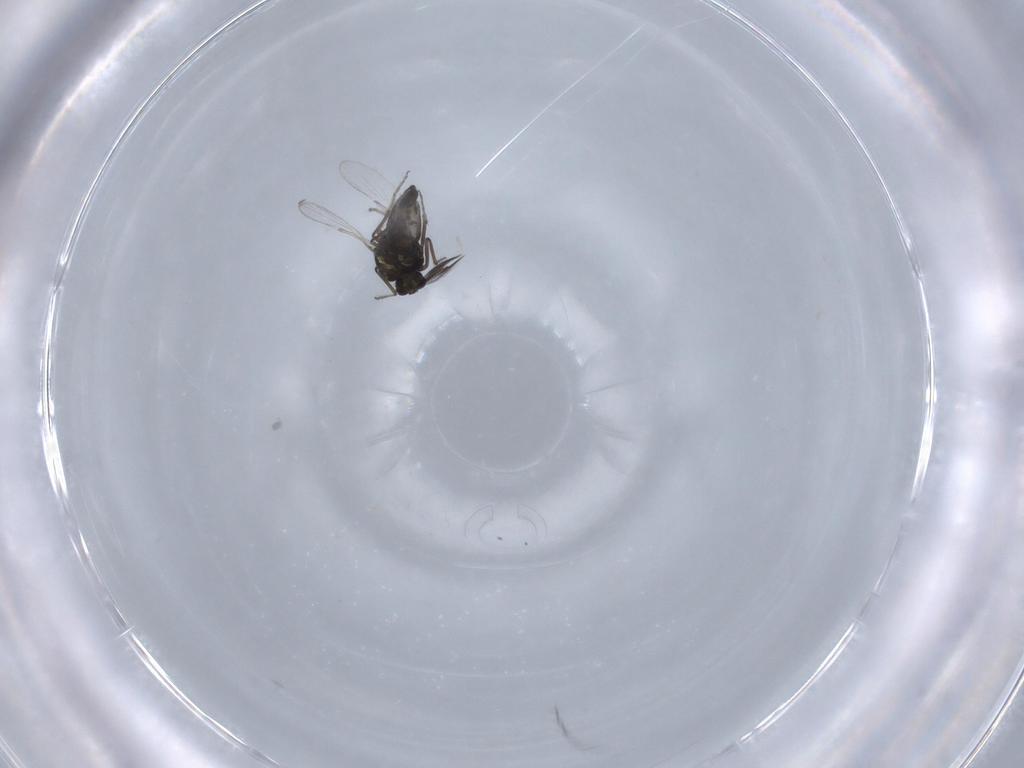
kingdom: Animalia
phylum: Arthropoda
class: Insecta
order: Diptera
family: Ceratopogonidae
